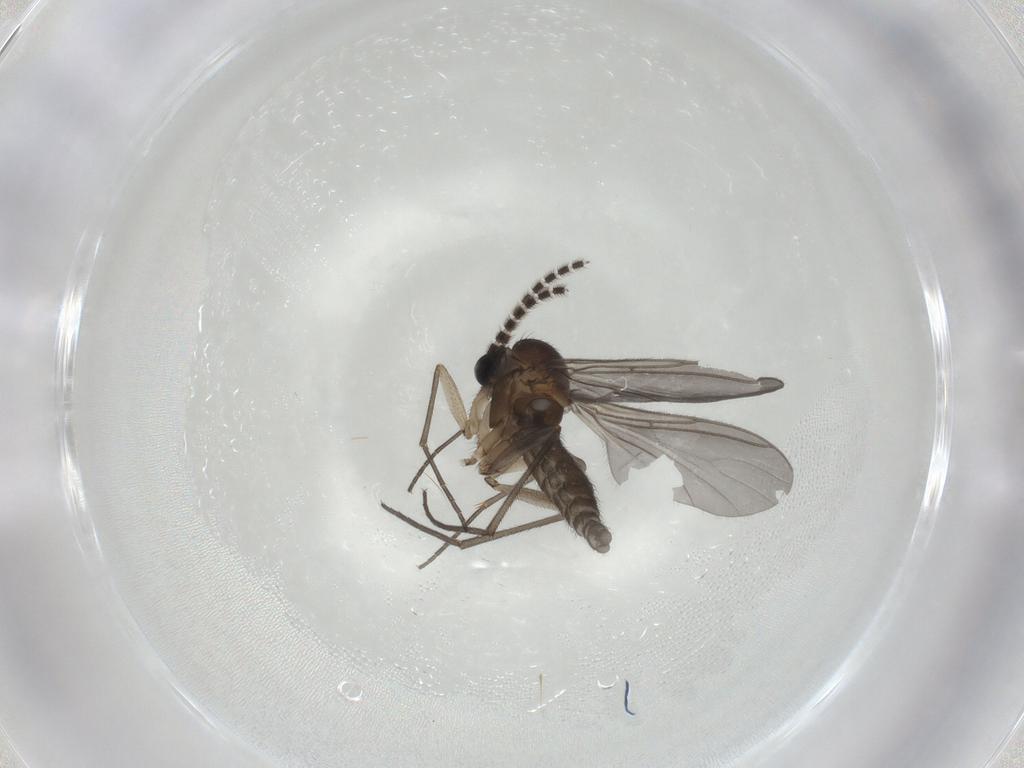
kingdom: Animalia
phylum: Arthropoda
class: Insecta
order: Diptera
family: Sciaridae
